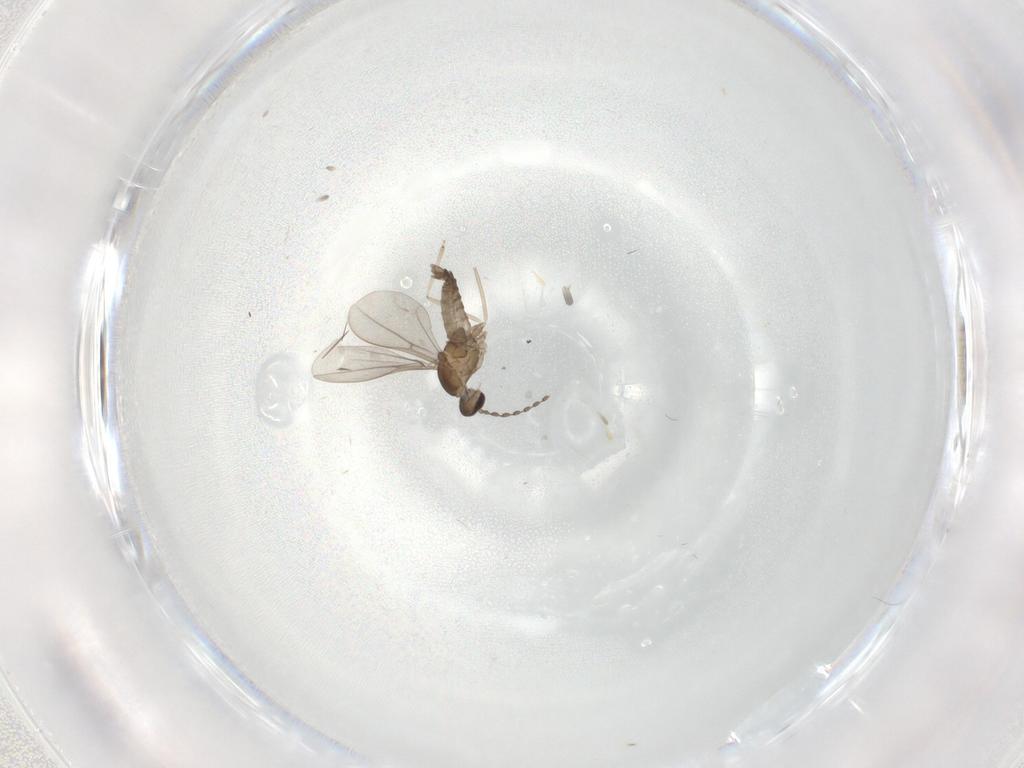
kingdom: Animalia
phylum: Arthropoda
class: Insecta
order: Diptera
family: Cecidomyiidae
